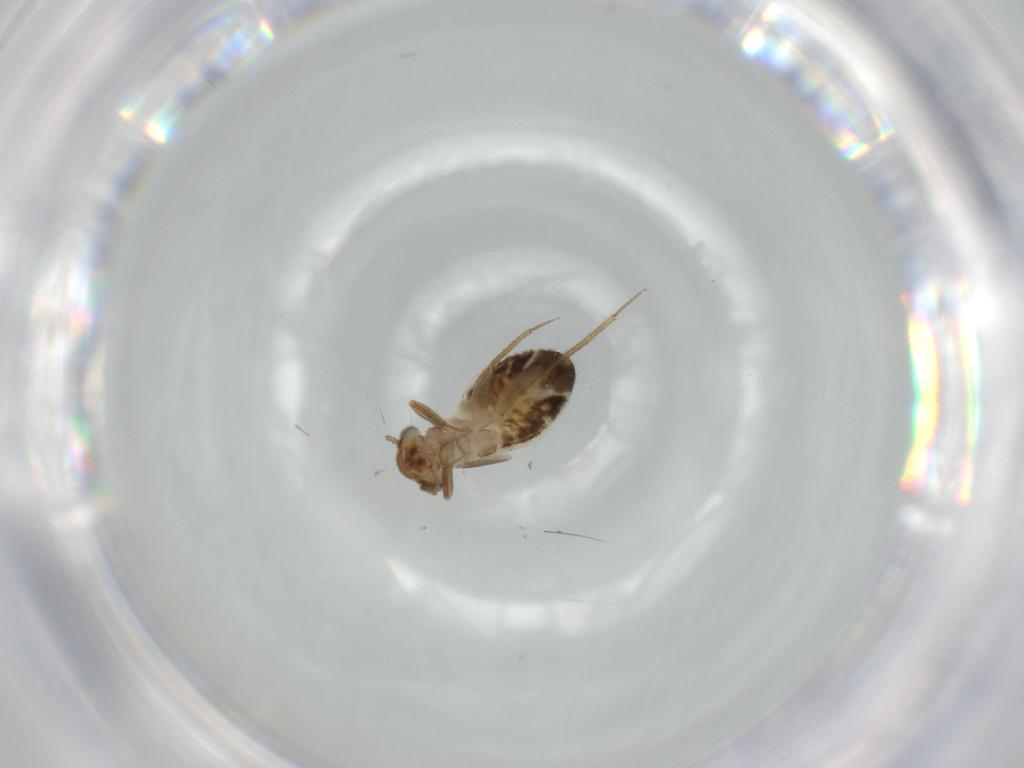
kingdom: Animalia
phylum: Arthropoda
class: Insecta
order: Psocodea
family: Lepidopsocidae
